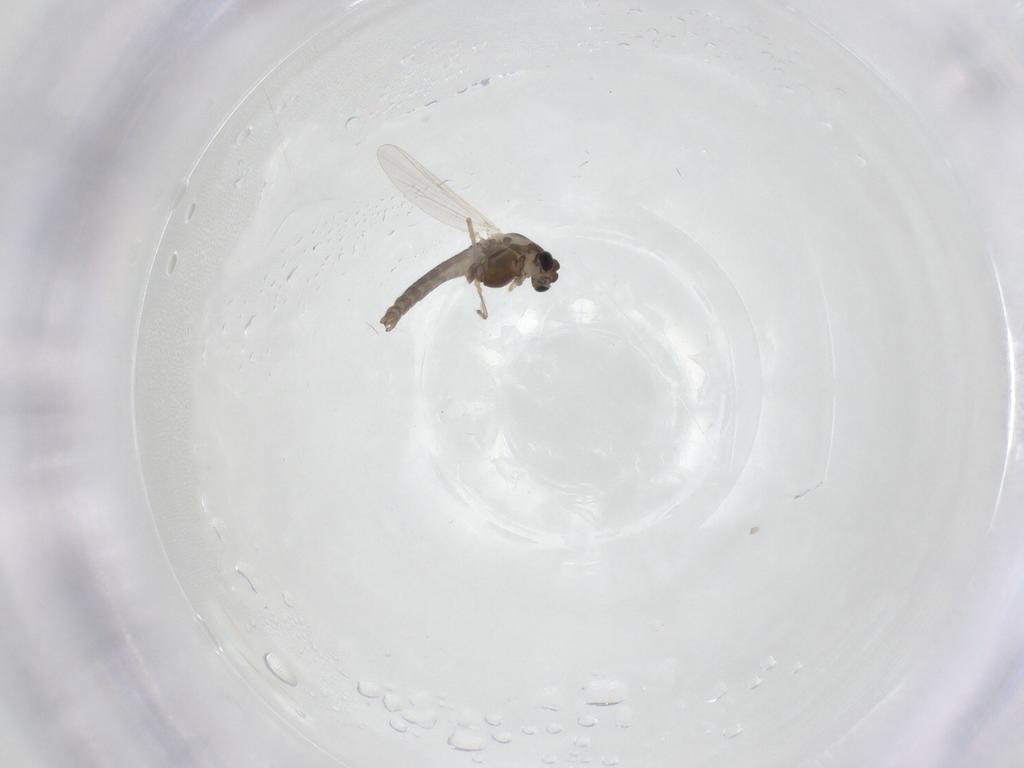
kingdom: Animalia
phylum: Arthropoda
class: Insecta
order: Diptera
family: Chironomidae
